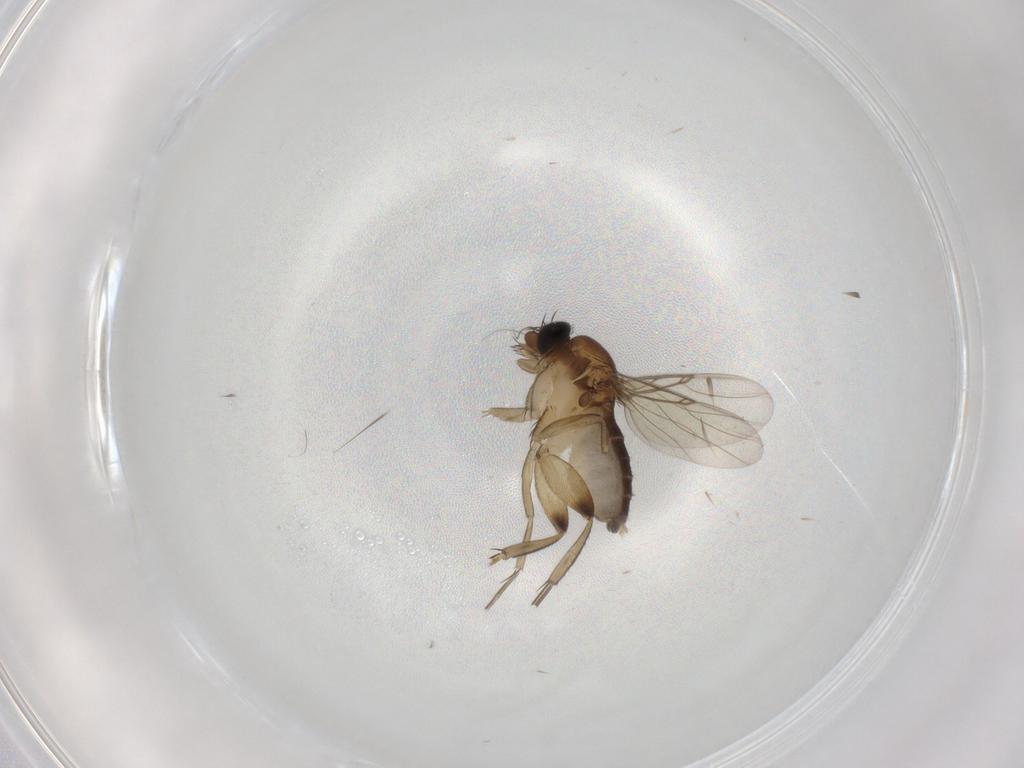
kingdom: Animalia
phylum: Arthropoda
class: Insecta
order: Diptera
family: Phoridae
